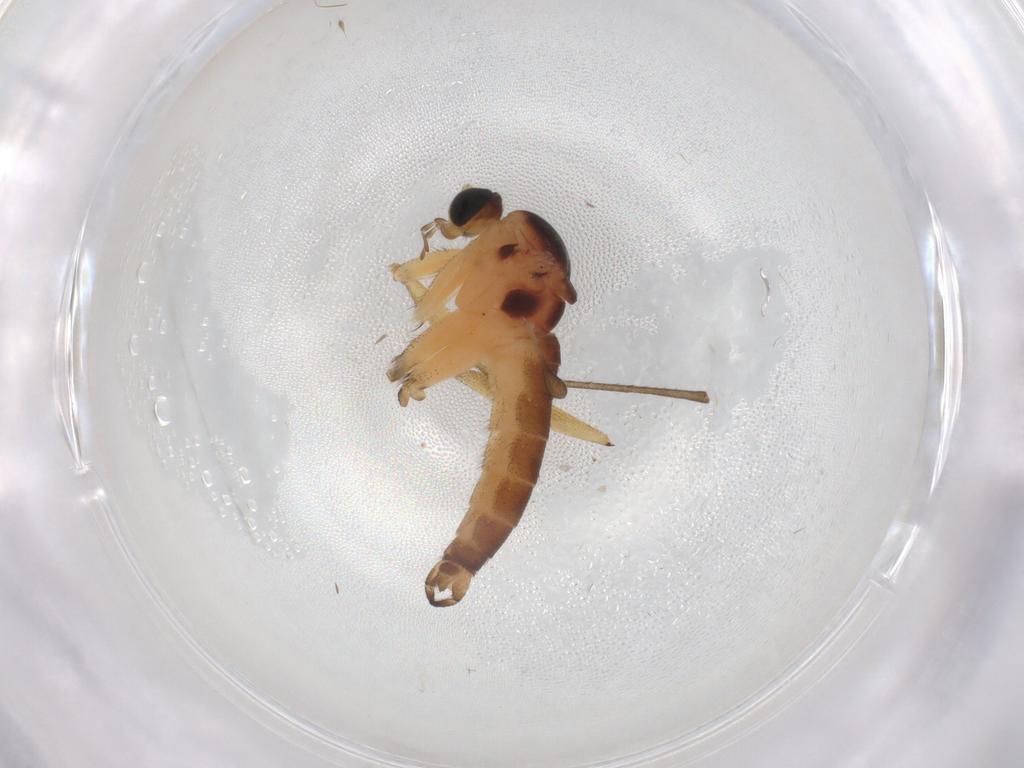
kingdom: Animalia
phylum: Arthropoda
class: Insecta
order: Diptera
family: Sciaridae
